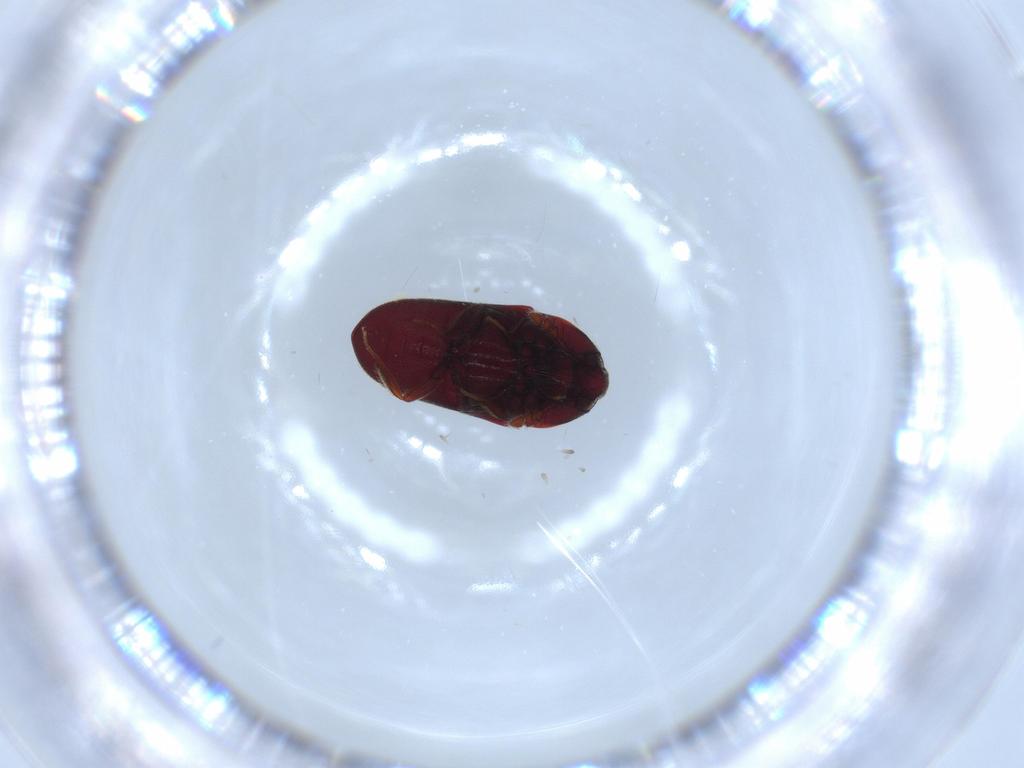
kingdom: Animalia
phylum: Arthropoda
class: Insecta
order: Coleoptera
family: Throscidae
